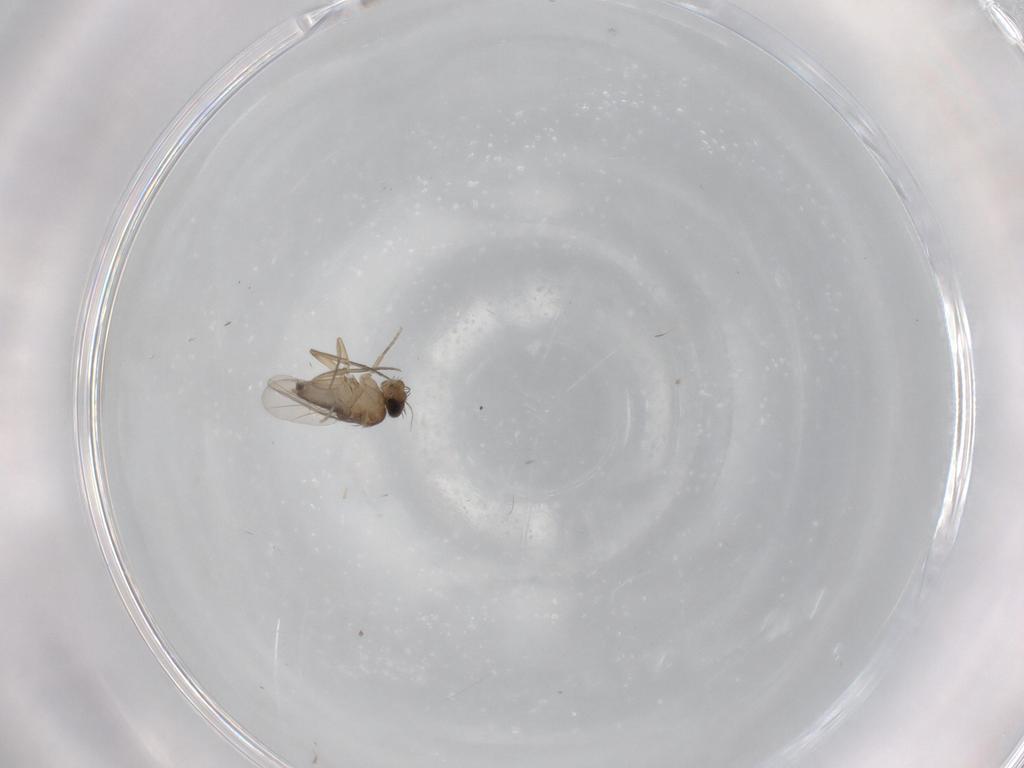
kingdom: Animalia
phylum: Arthropoda
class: Insecta
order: Diptera
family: Phoridae
